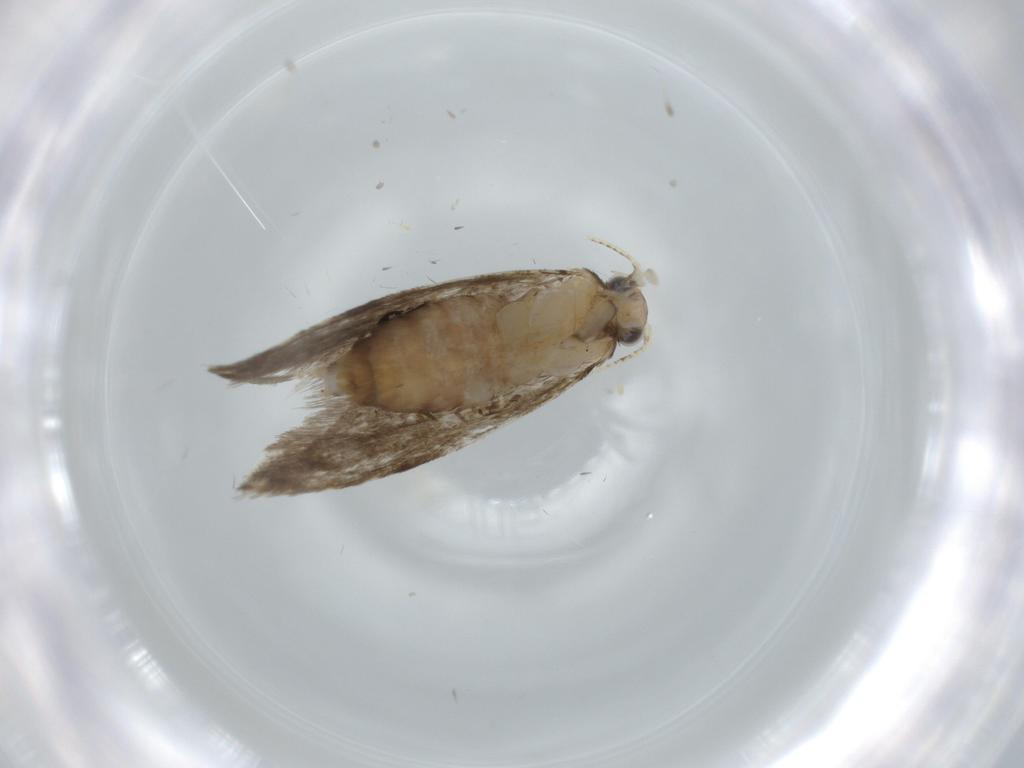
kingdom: Animalia
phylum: Arthropoda
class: Insecta
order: Lepidoptera
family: Tineidae
